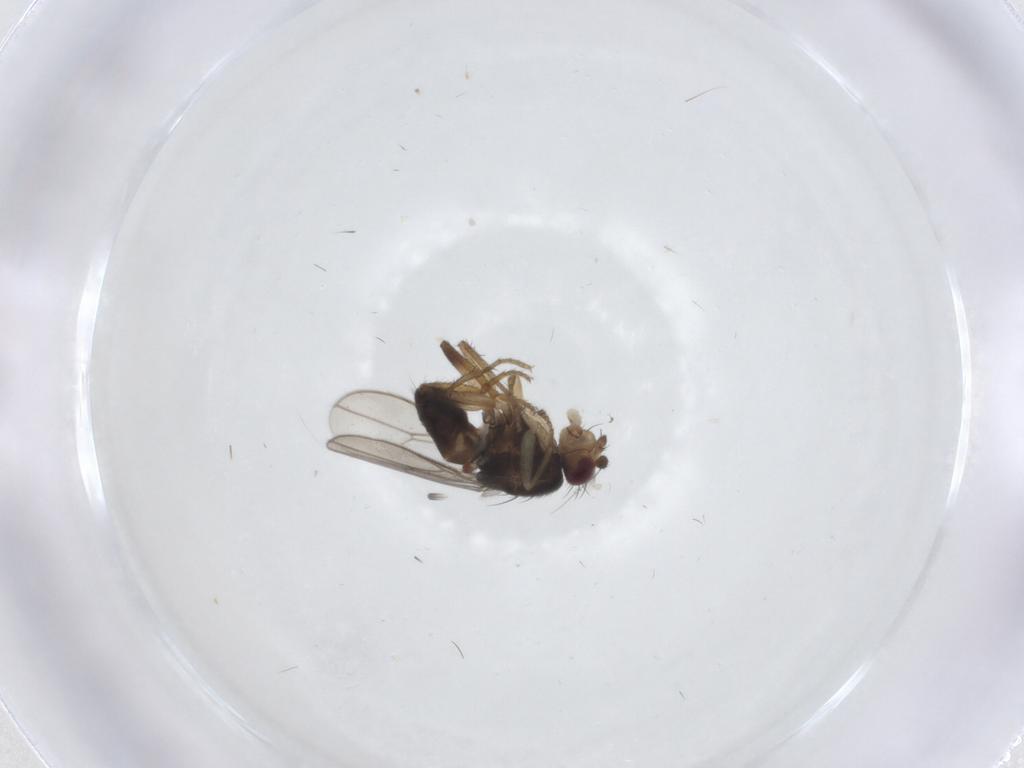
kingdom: Animalia
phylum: Arthropoda
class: Insecta
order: Diptera
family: Sphaeroceridae
